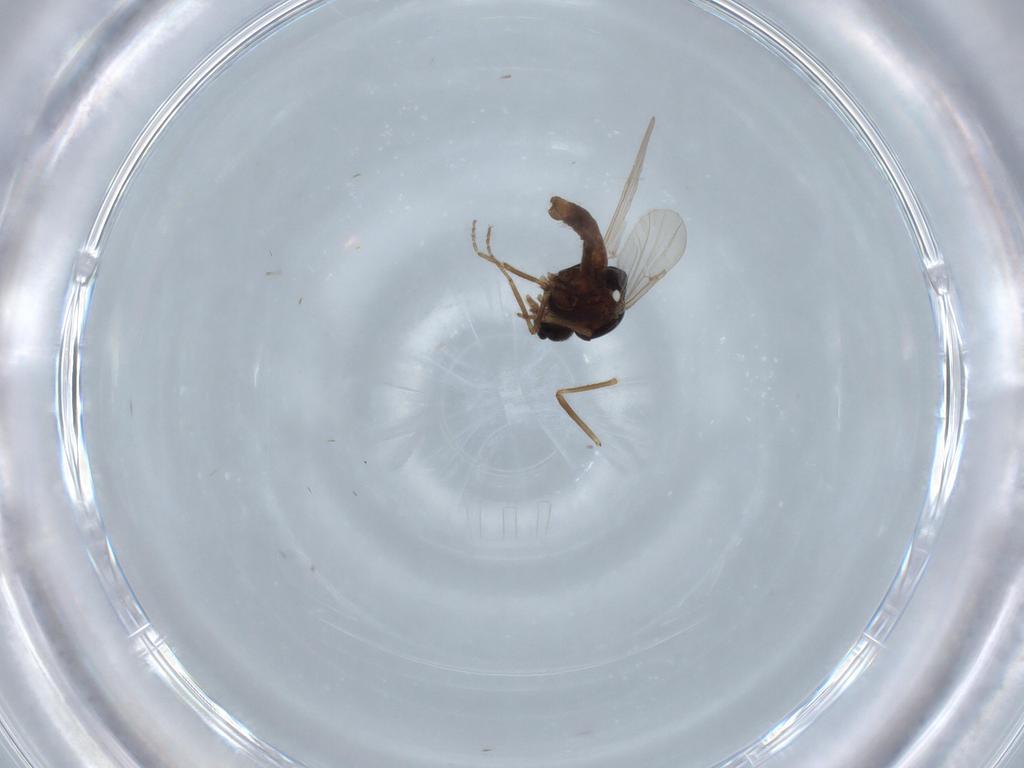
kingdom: Animalia
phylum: Arthropoda
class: Insecta
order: Diptera
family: Ceratopogonidae
